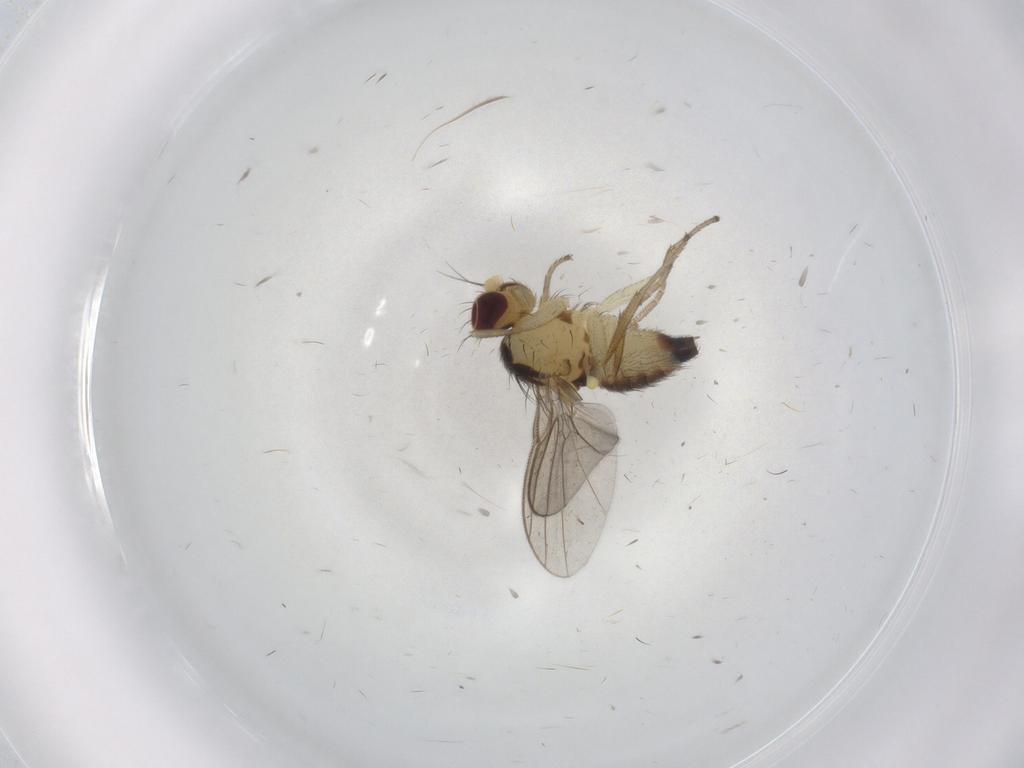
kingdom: Animalia
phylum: Arthropoda
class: Insecta
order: Diptera
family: Agromyzidae
